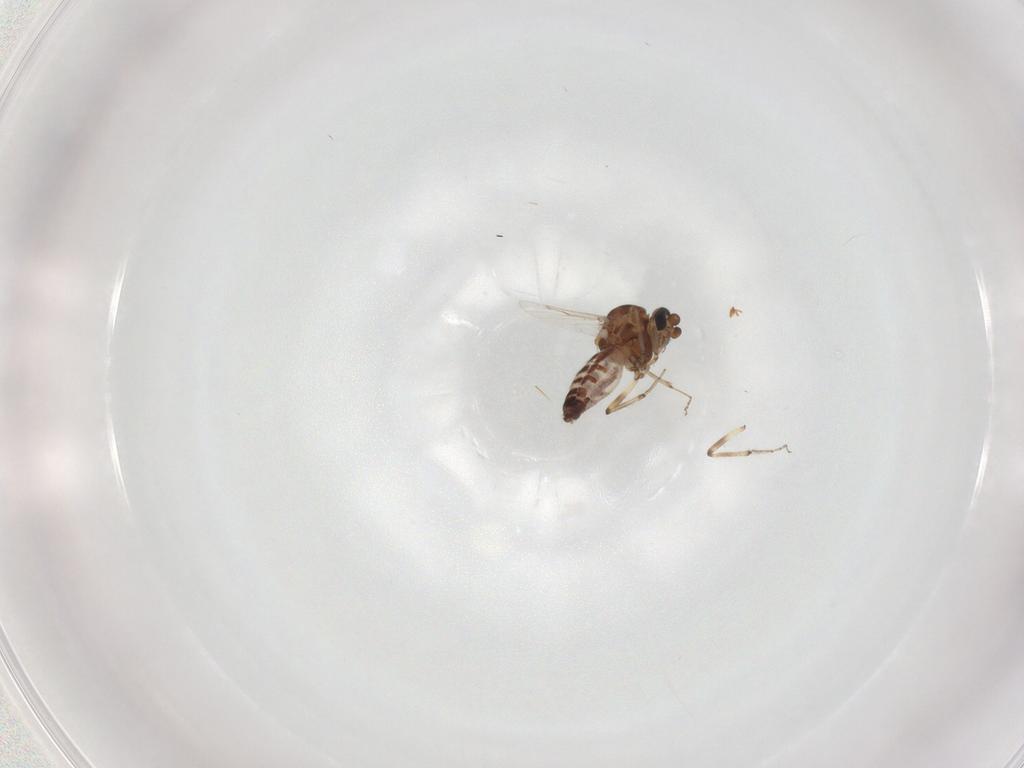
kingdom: Animalia
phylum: Arthropoda
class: Insecta
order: Diptera
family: Ceratopogonidae
